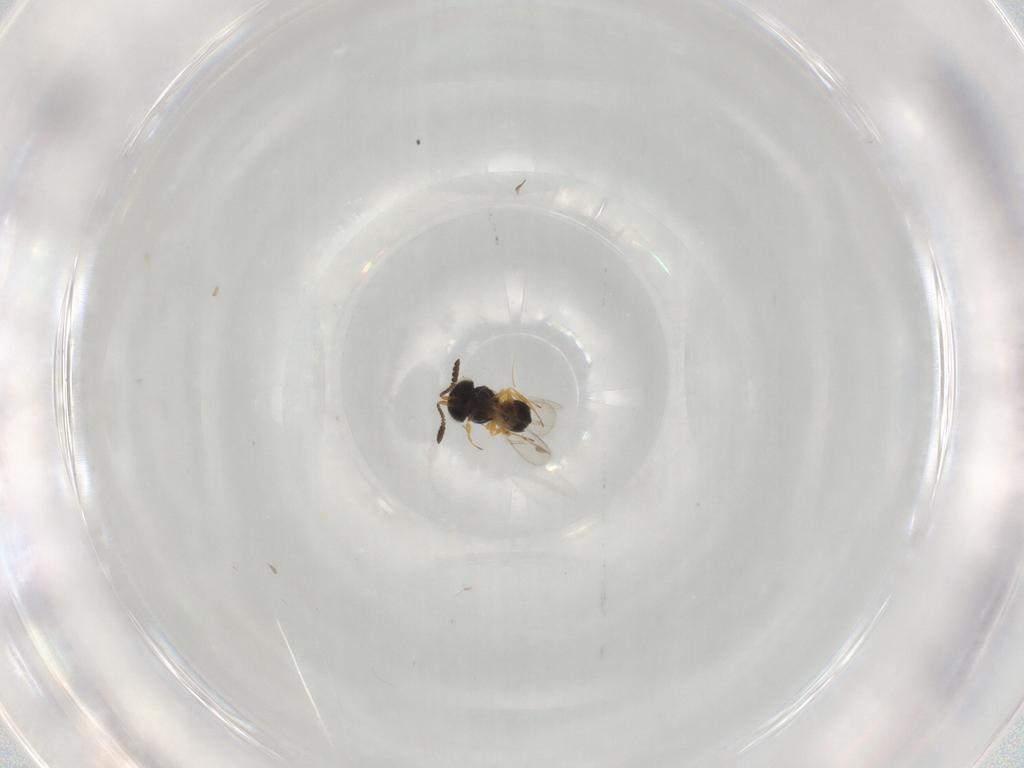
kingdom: Animalia
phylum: Arthropoda
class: Insecta
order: Hymenoptera
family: Scelionidae
